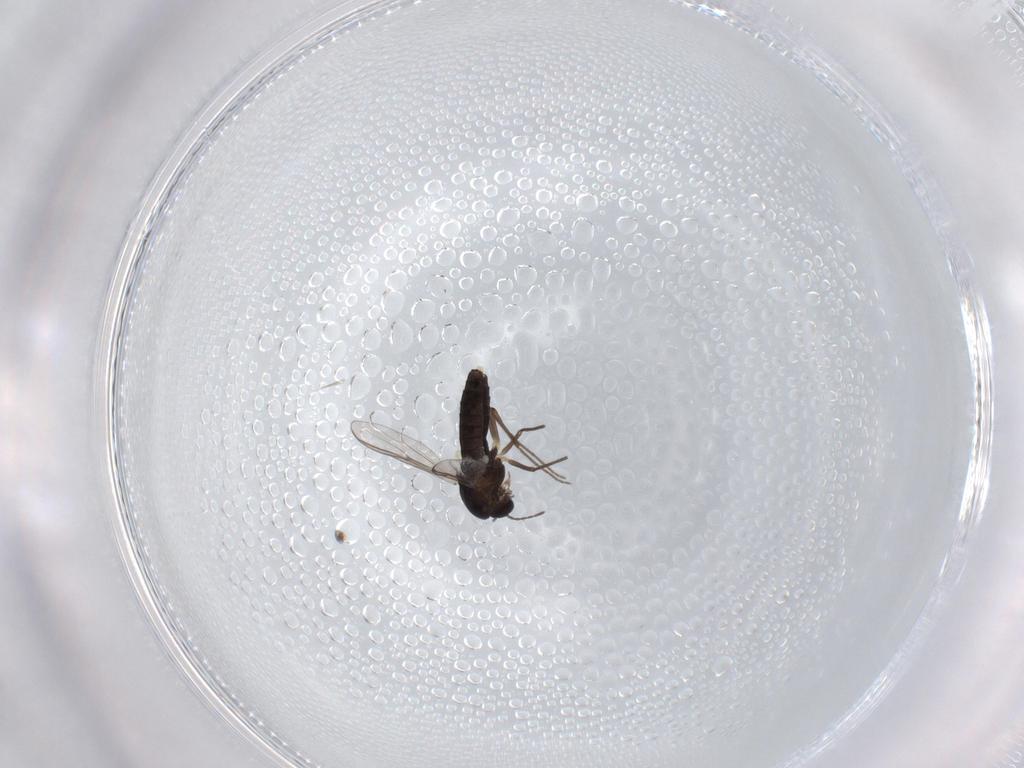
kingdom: Animalia
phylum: Arthropoda
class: Insecta
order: Diptera
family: Chironomidae
